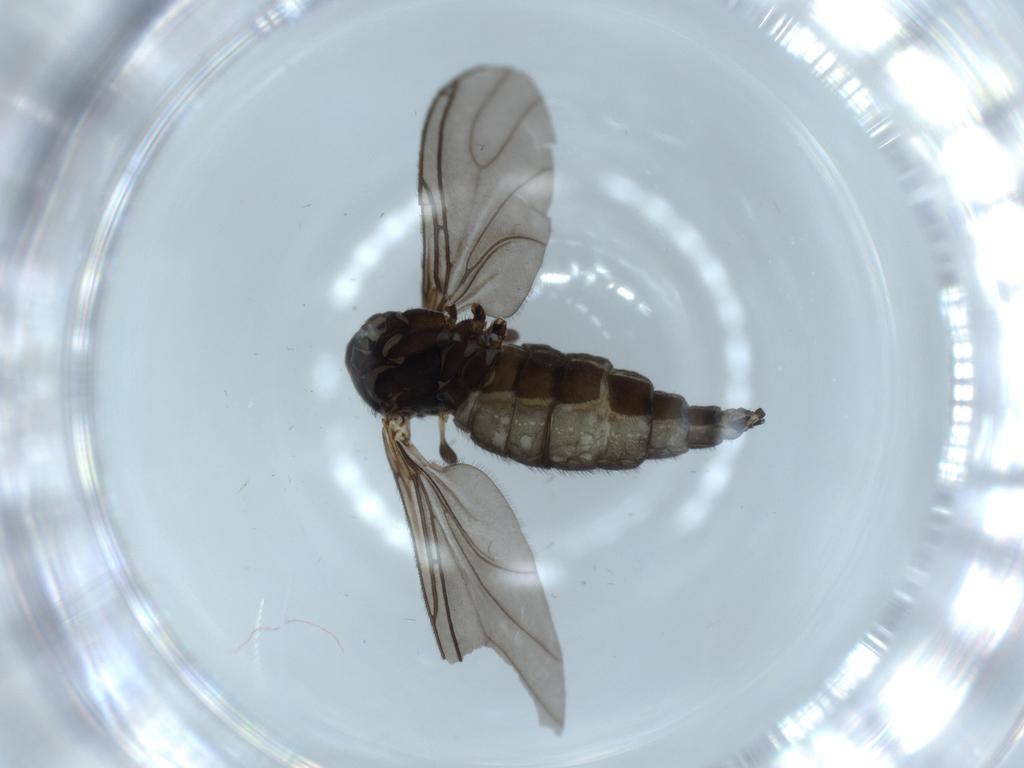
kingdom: Animalia
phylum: Arthropoda
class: Insecta
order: Diptera
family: Sciaridae
